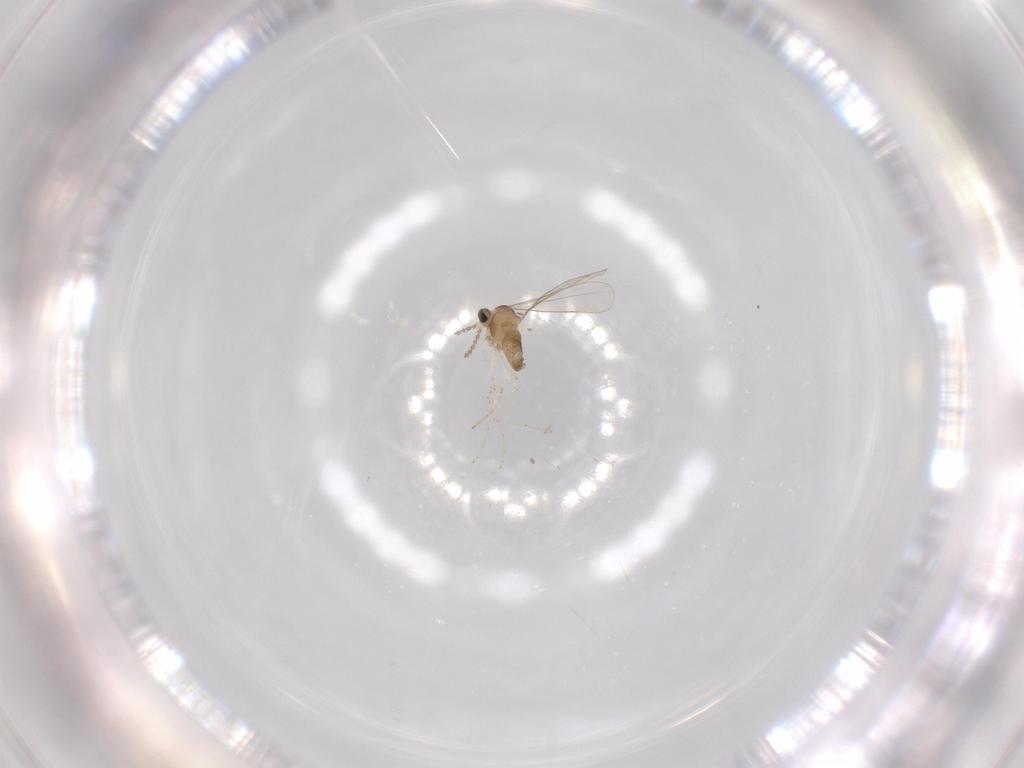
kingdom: Animalia
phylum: Arthropoda
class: Insecta
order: Diptera
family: Cecidomyiidae
